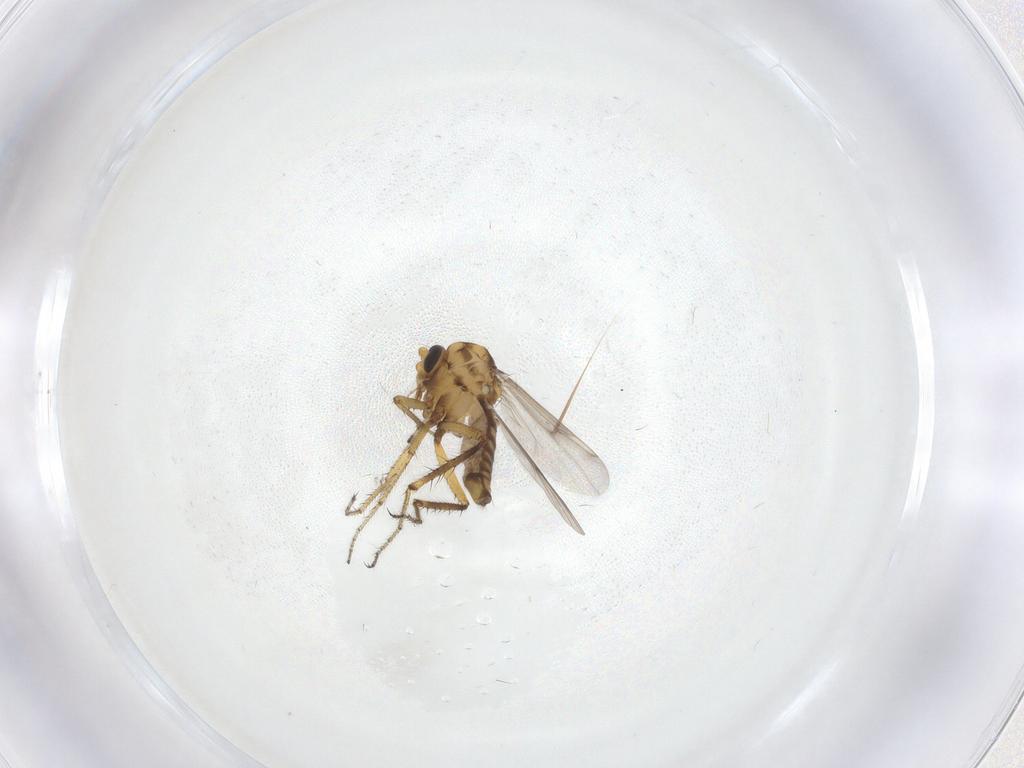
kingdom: Animalia
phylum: Arthropoda
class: Insecta
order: Diptera
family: Cecidomyiidae
